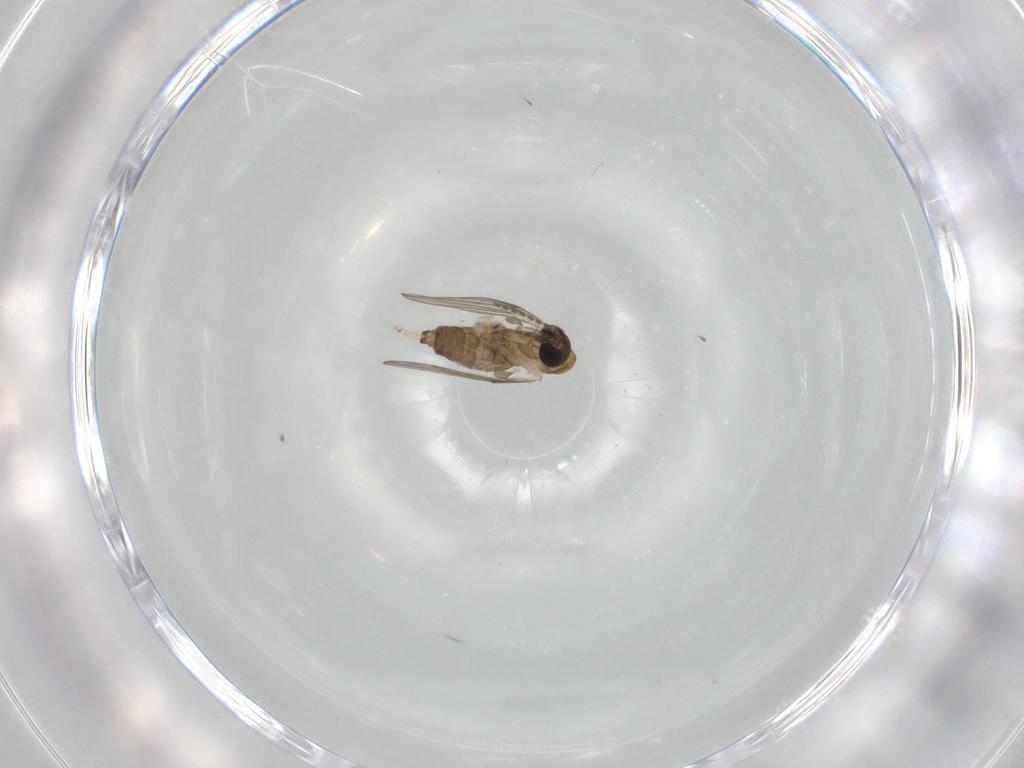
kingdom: Animalia
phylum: Arthropoda
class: Insecta
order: Diptera
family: Psychodidae
